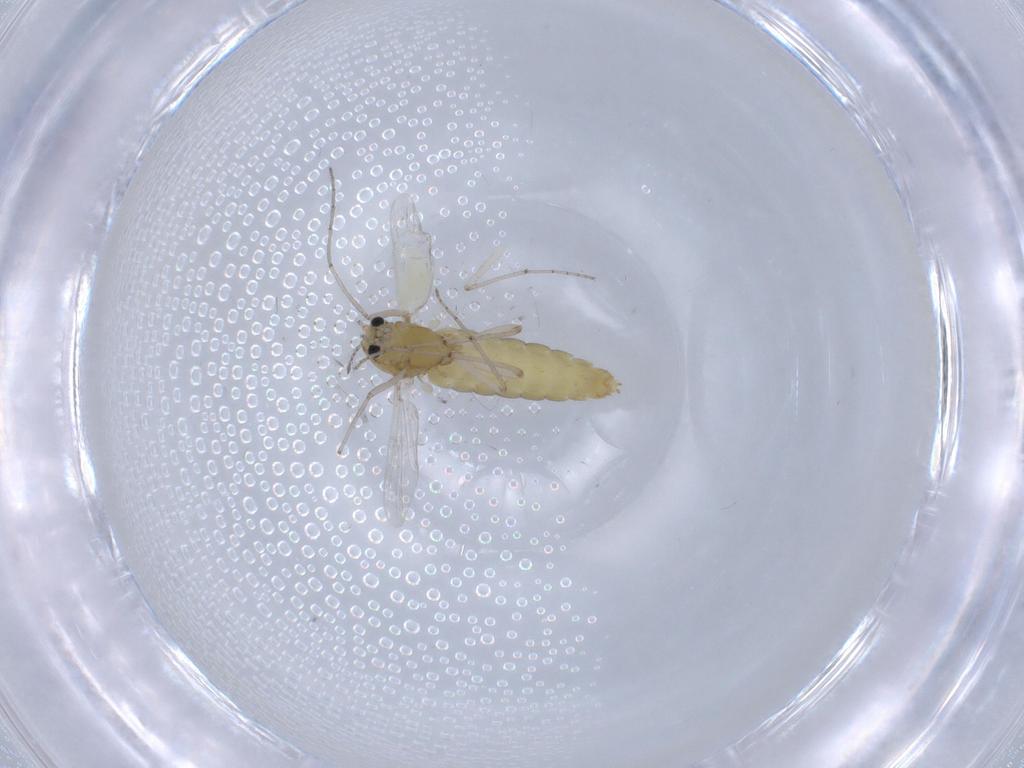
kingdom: Animalia
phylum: Arthropoda
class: Insecta
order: Diptera
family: Chironomidae
